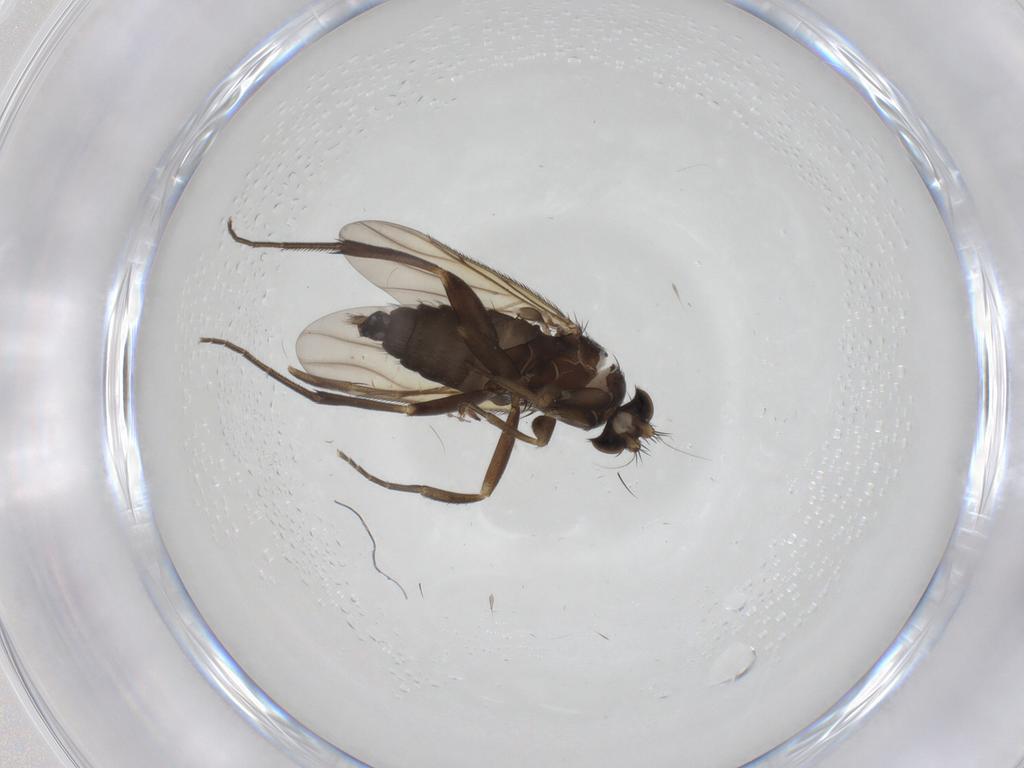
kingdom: Animalia
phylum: Arthropoda
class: Insecta
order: Diptera
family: Phoridae
